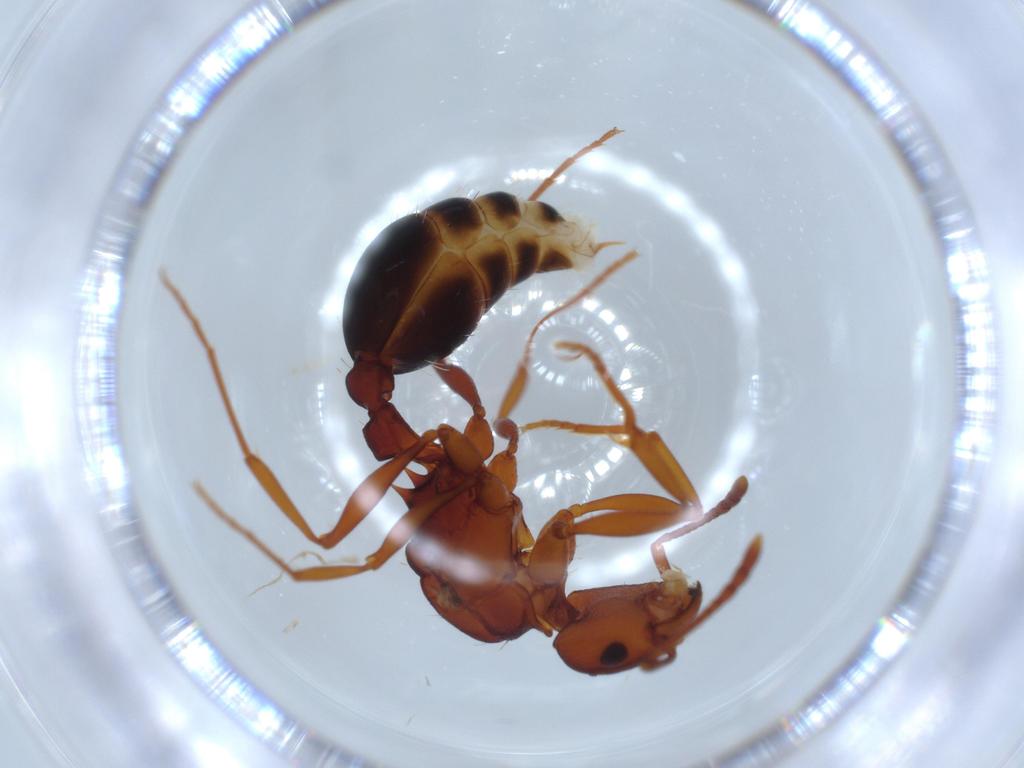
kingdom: Animalia
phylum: Arthropoda
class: Insecta
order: Hymenoptera
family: Formicidae
